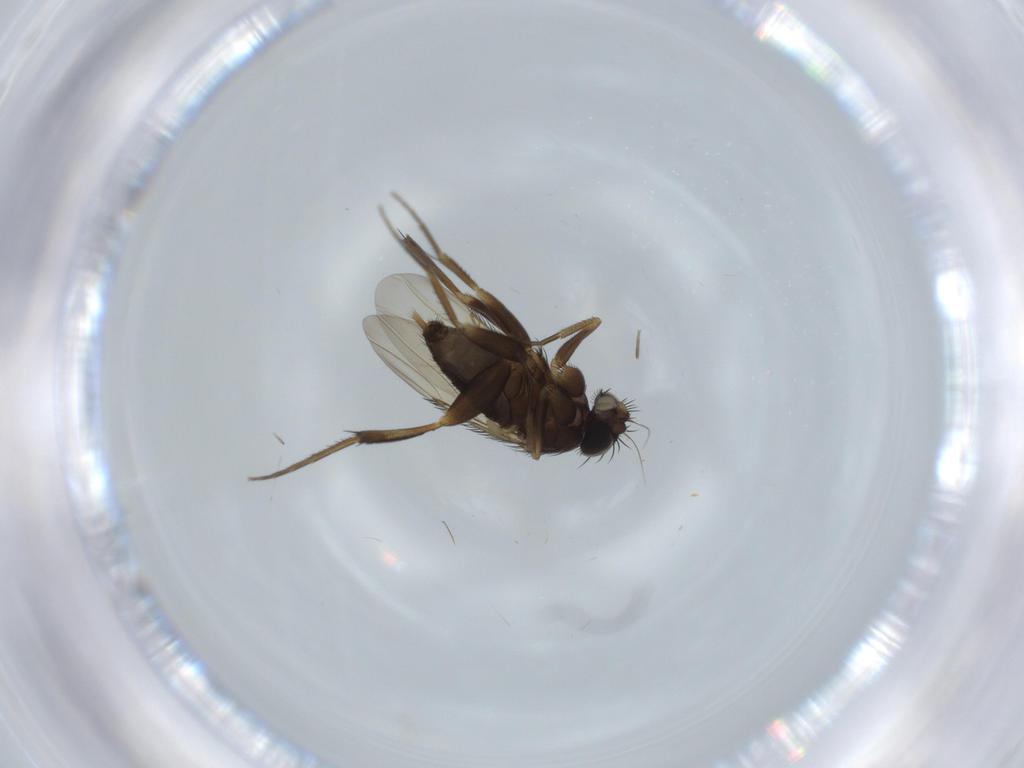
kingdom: Animalia
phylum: Arthropoda
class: Insecta
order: Diptera
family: Phoridae
